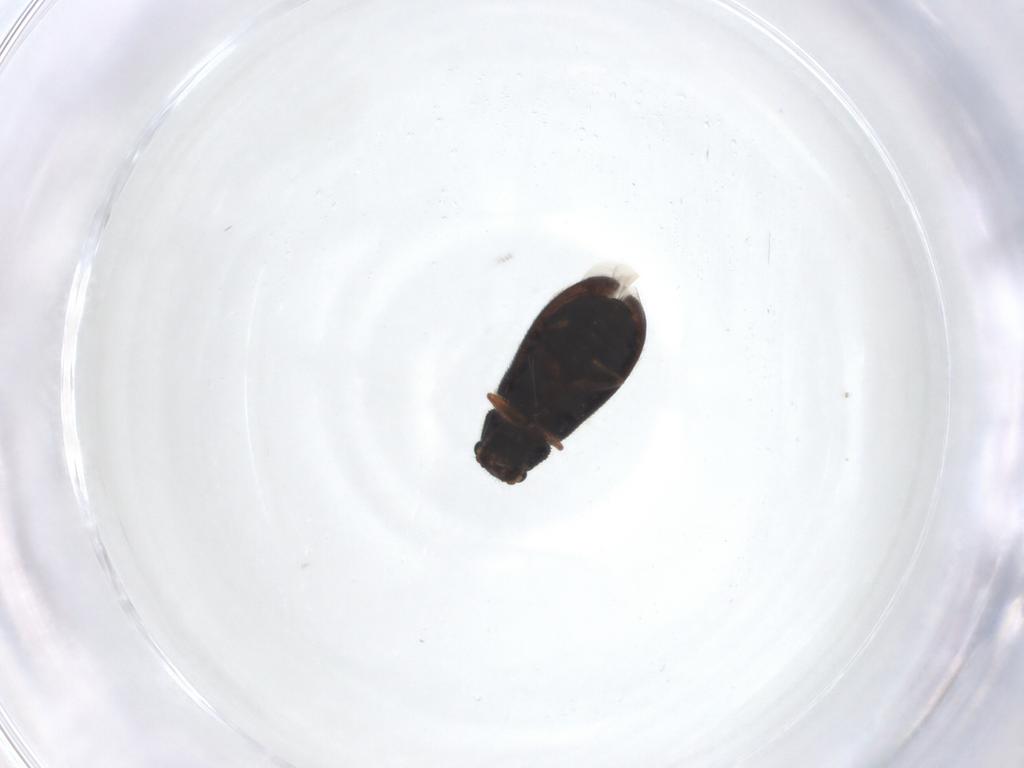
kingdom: Animalia
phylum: Arthropoda
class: Insecta
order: Coleoptera
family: Melyridae
